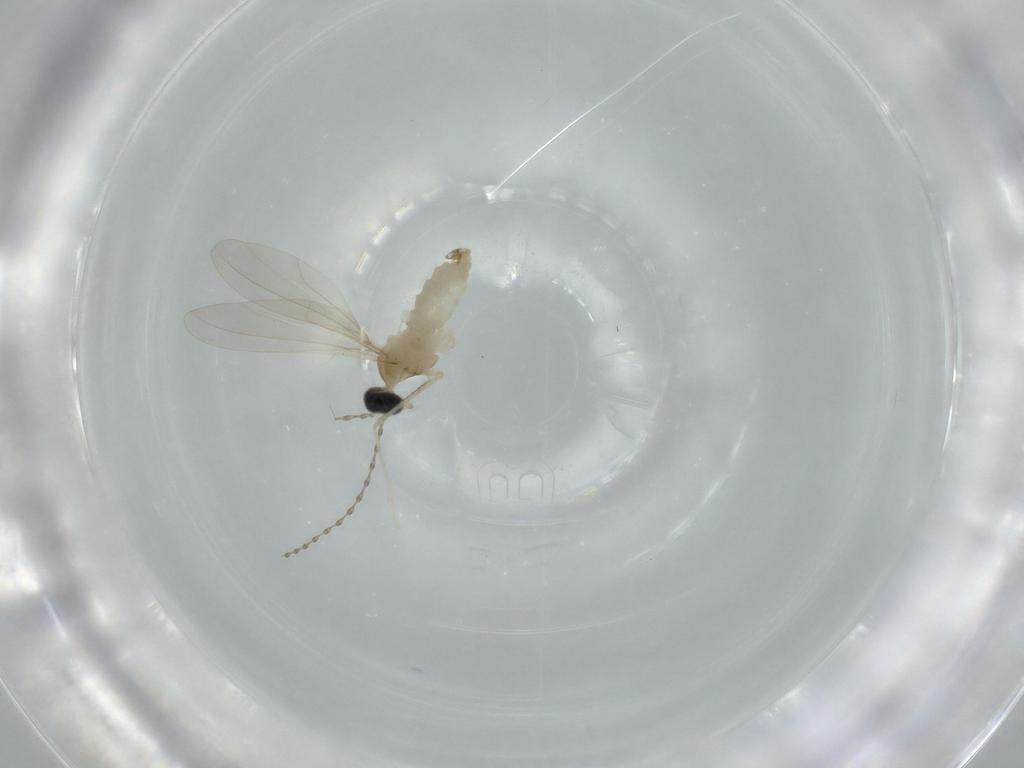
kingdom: Animalia
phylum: Arthropoda
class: Insecta
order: Diptera
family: Cecidomyiidae
